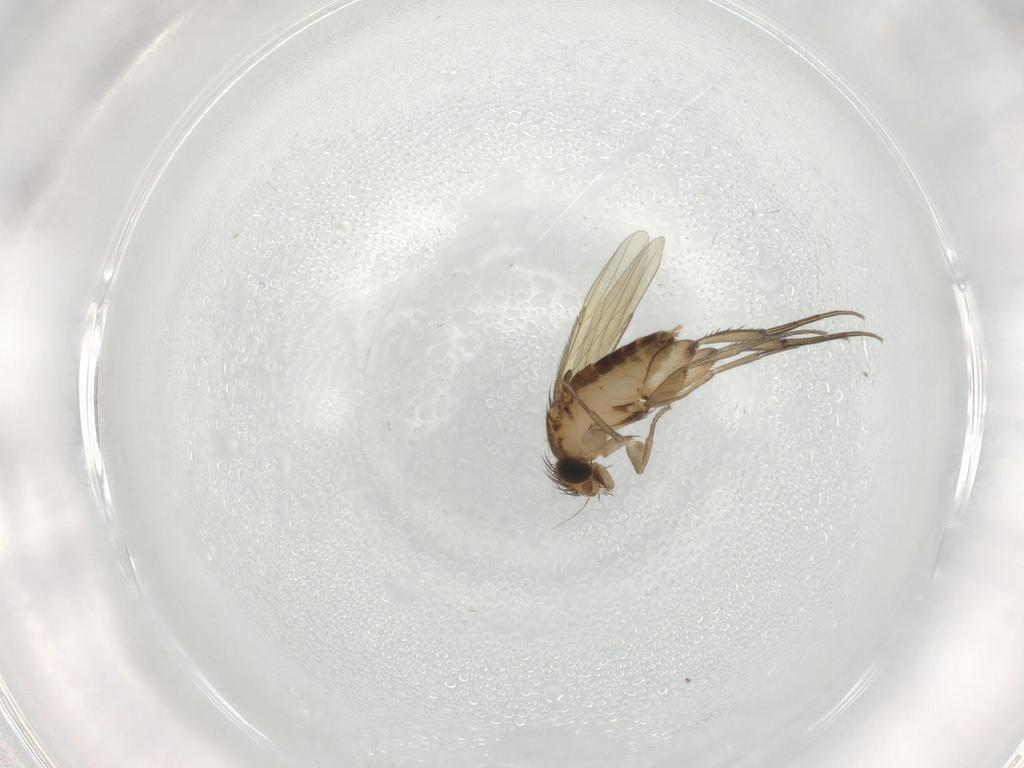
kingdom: Animalia
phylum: Arthropoda
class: Insecta
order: Diptera
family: Phoridae
